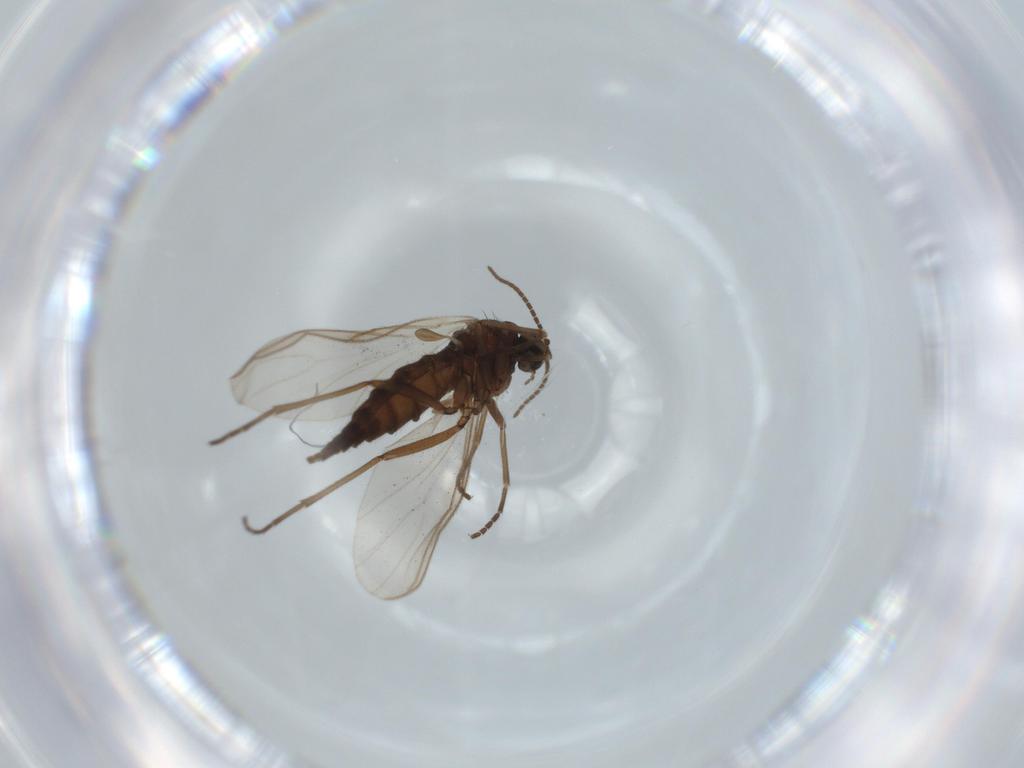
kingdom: Animalia
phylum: Arthropoda
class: Insecta
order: Diptera
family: Sciaridae
